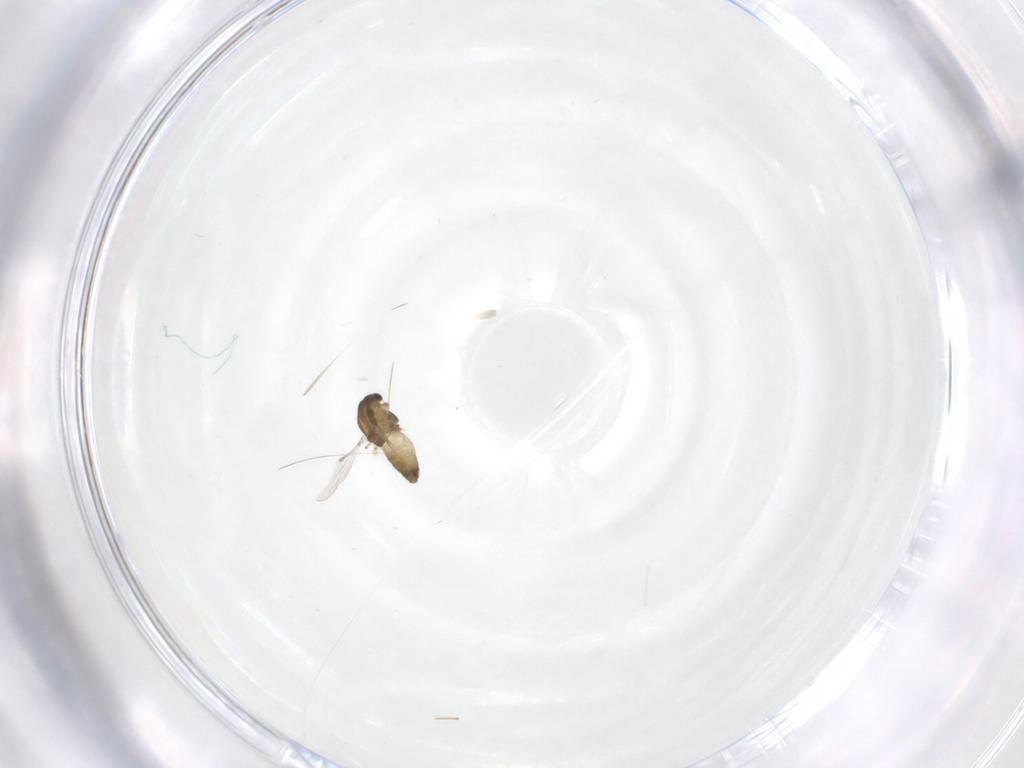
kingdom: Animalia
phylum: Arthropoda
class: Insecta
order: Diptera
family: Chironomidae
